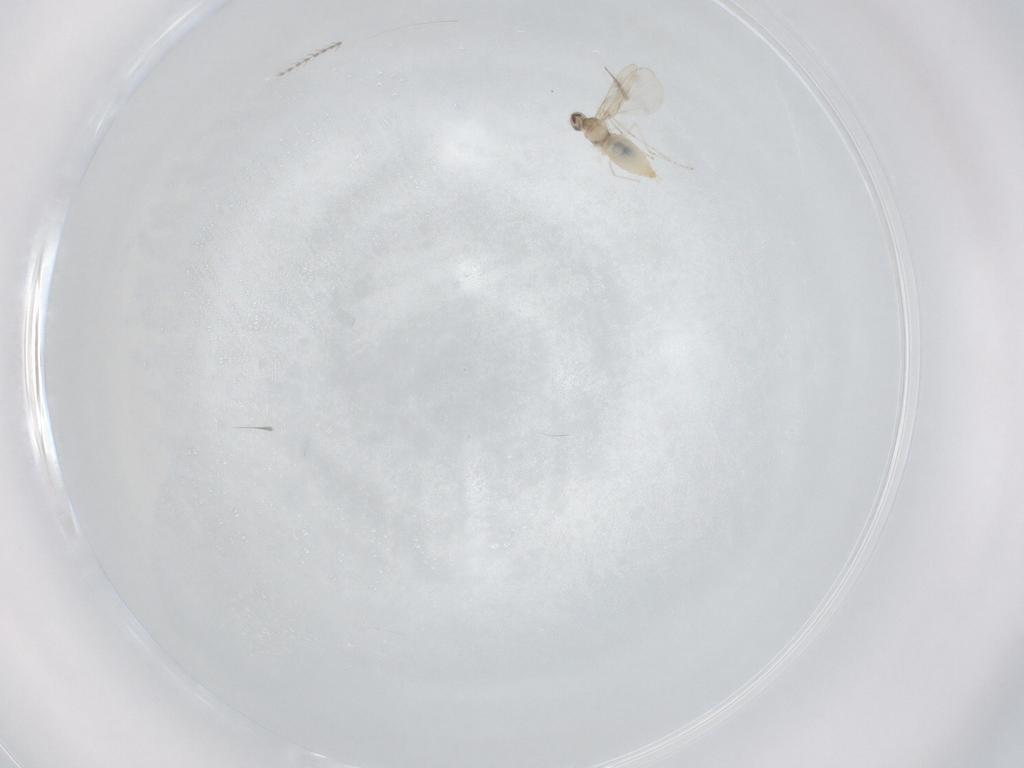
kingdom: Animalia
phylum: Arthropoda
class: Insecta
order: Diptera
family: Psychodidae
